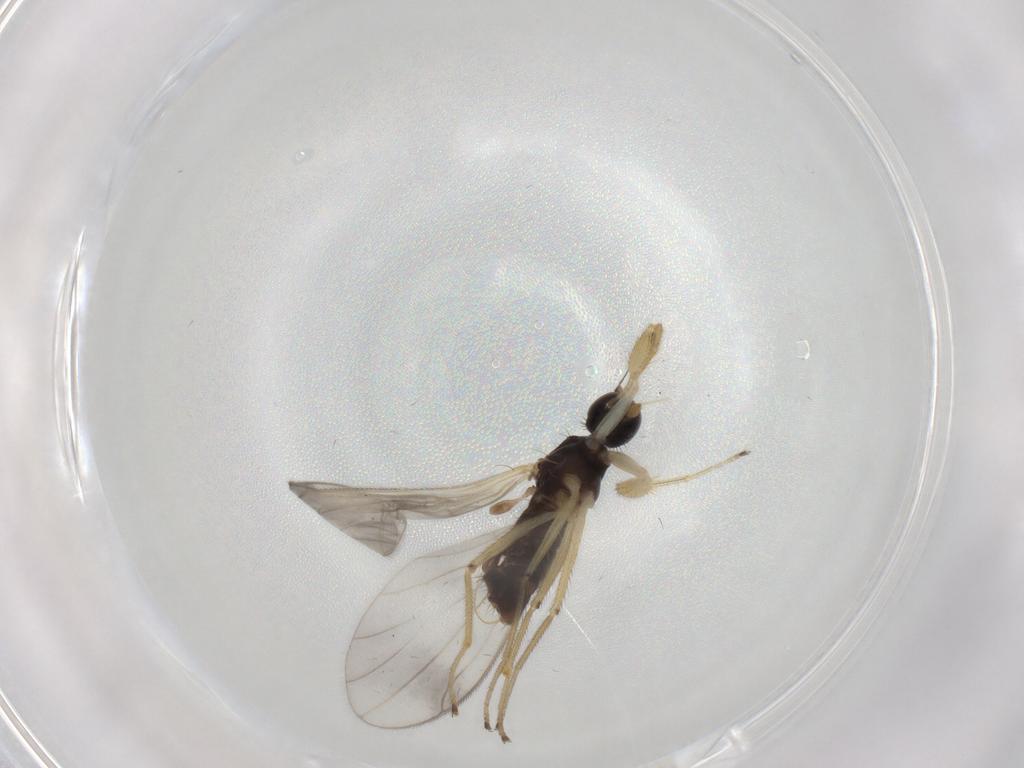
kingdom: Animalia
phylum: Arthropoda
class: Insecta
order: Diptera
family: Empididae
